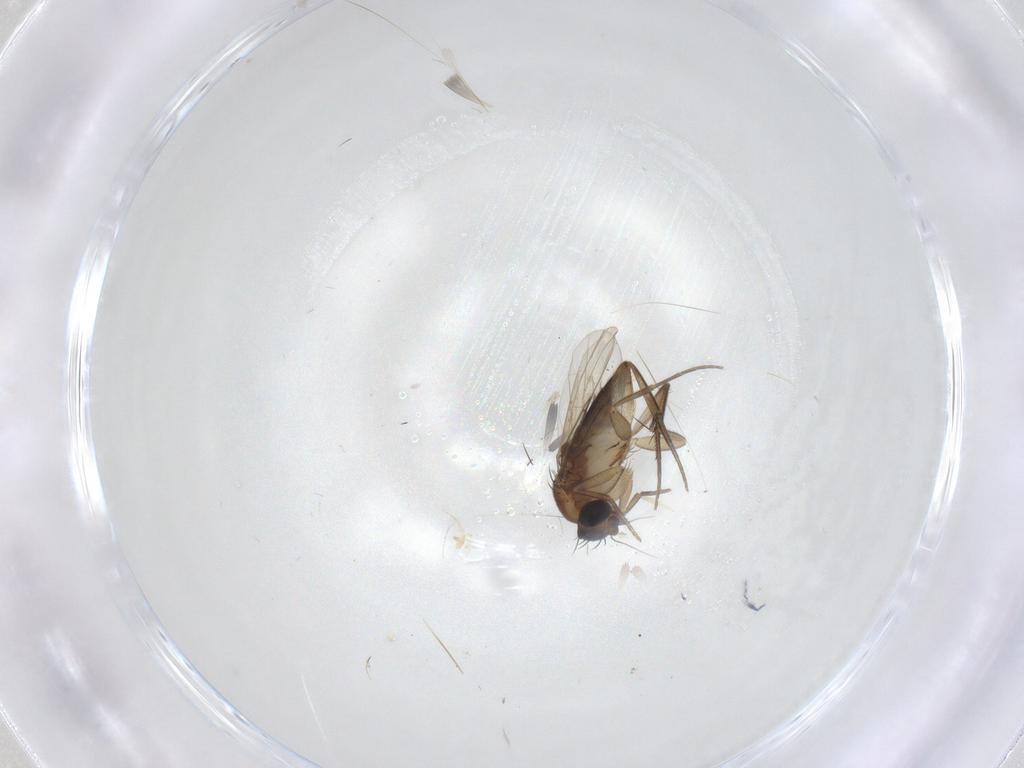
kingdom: Animalia
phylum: Arthropoda
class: Insecta
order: Diptera
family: Phoridae
